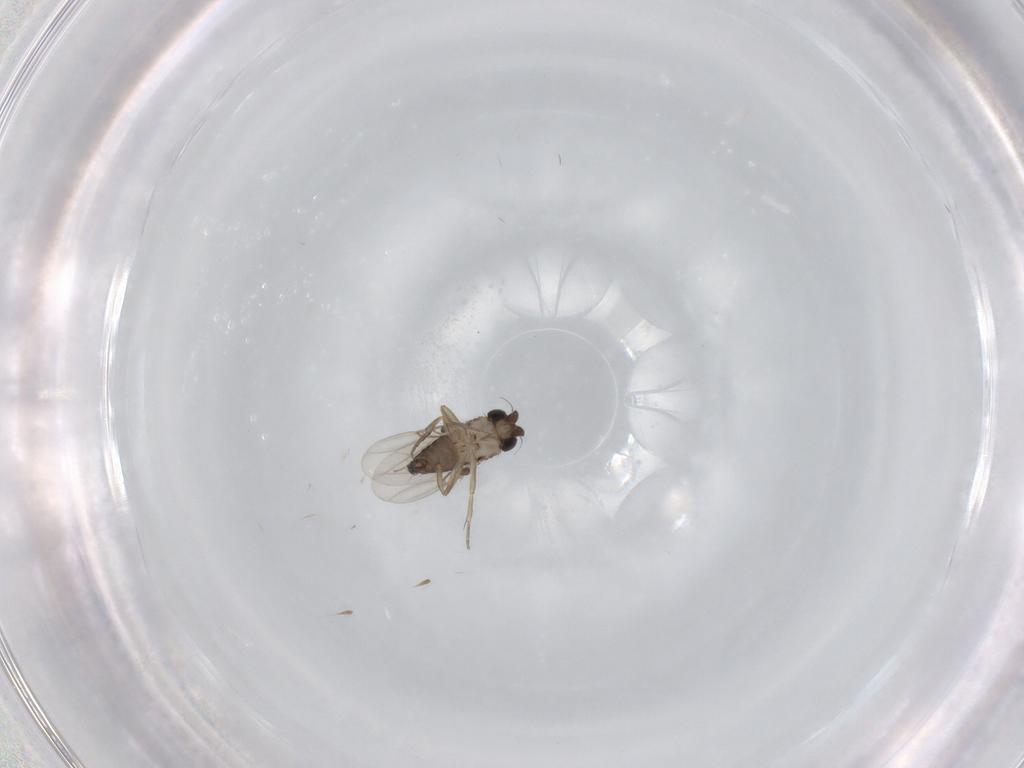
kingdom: Animalia
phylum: Arthropoda
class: Insecta
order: Diptera
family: Phoridae
